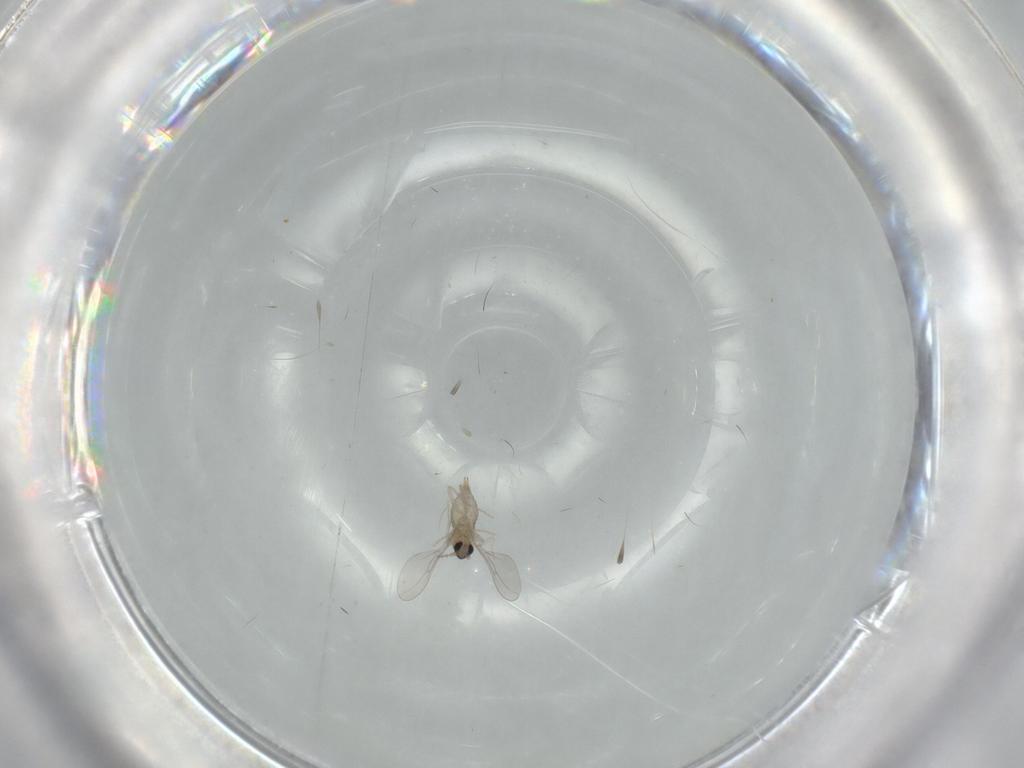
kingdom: Animalia
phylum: Arthropoda
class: Insecta
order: Diptera
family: Cecidomyiidae
